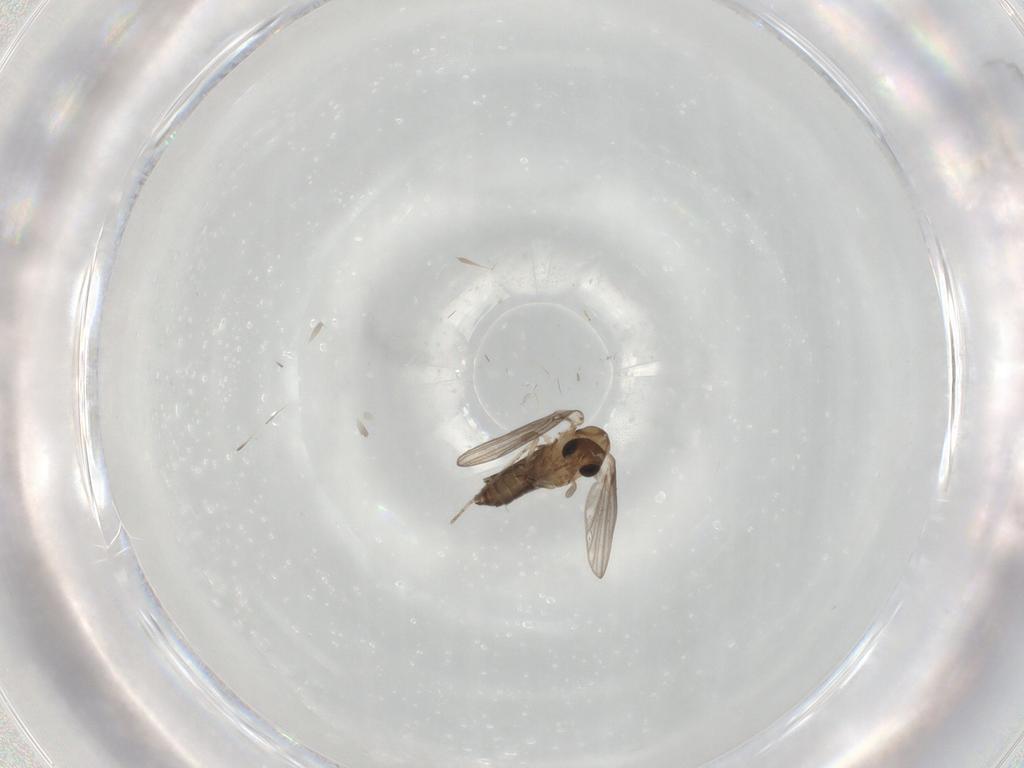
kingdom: Animalia
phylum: Arthropoda
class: Insecta
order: Diptera
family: Psychodidae
